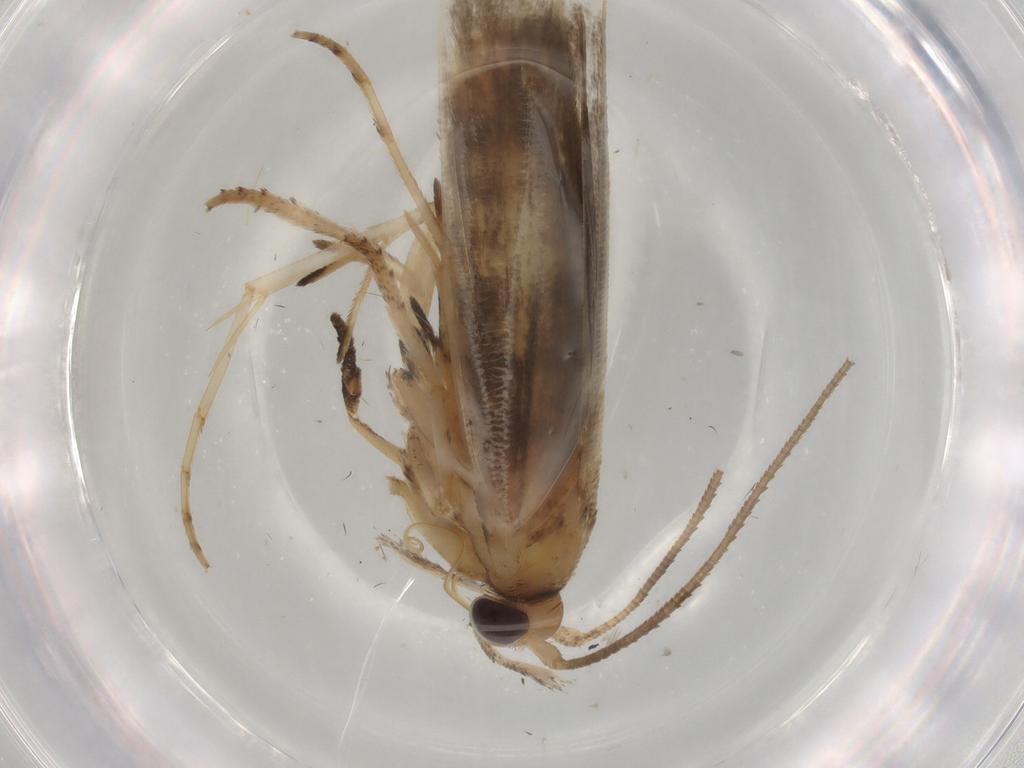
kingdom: Animalia
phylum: Arthropoda
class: Insecta
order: Lepidoptera
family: Yponomeutidae
